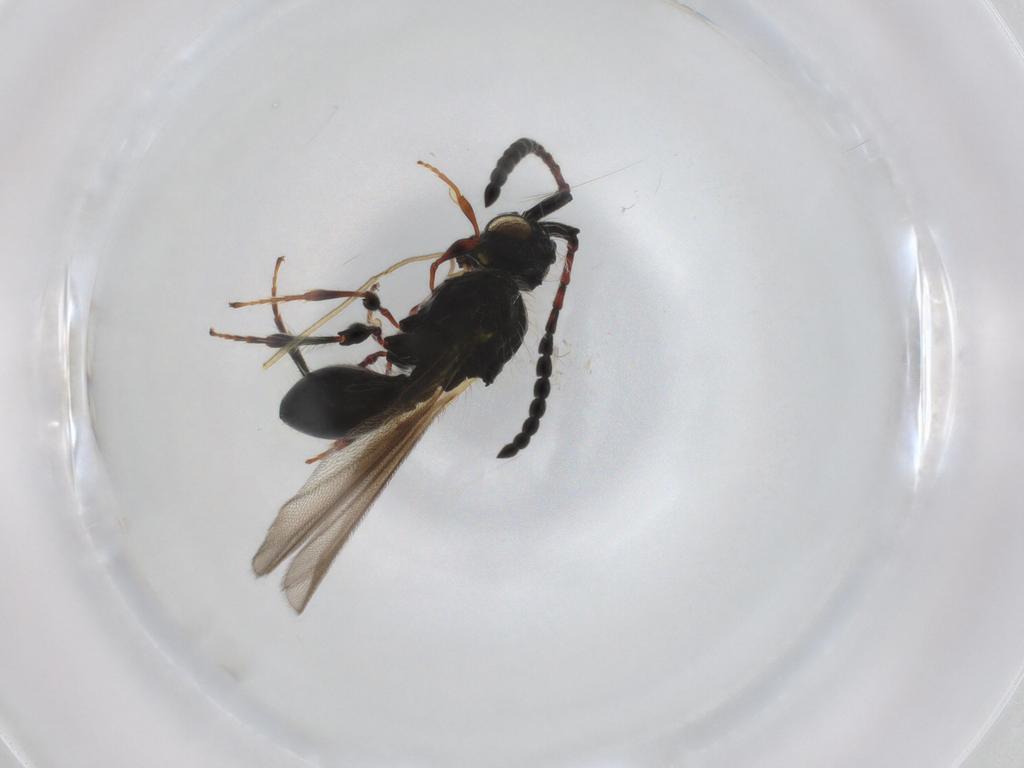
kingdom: Animalia
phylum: Arthropoda
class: Insecta
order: Hymenoptera
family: Diapriidae
